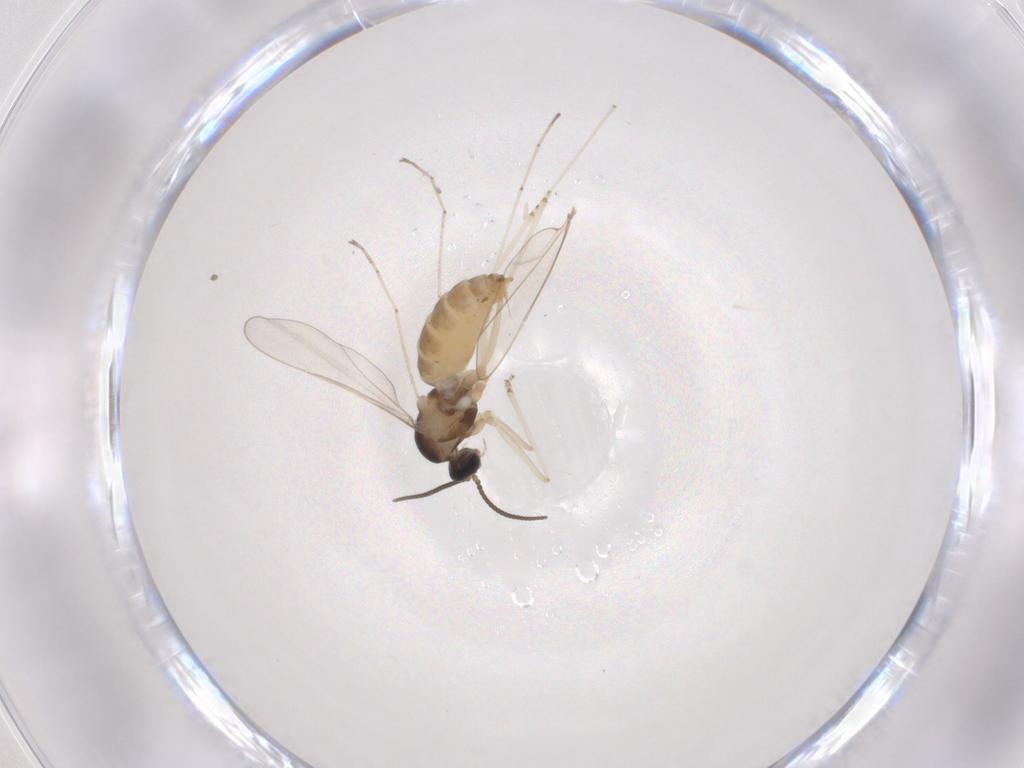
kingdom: Animalia
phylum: Arthropoda
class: Insecta
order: Diptera
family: Cecidomyiidae
